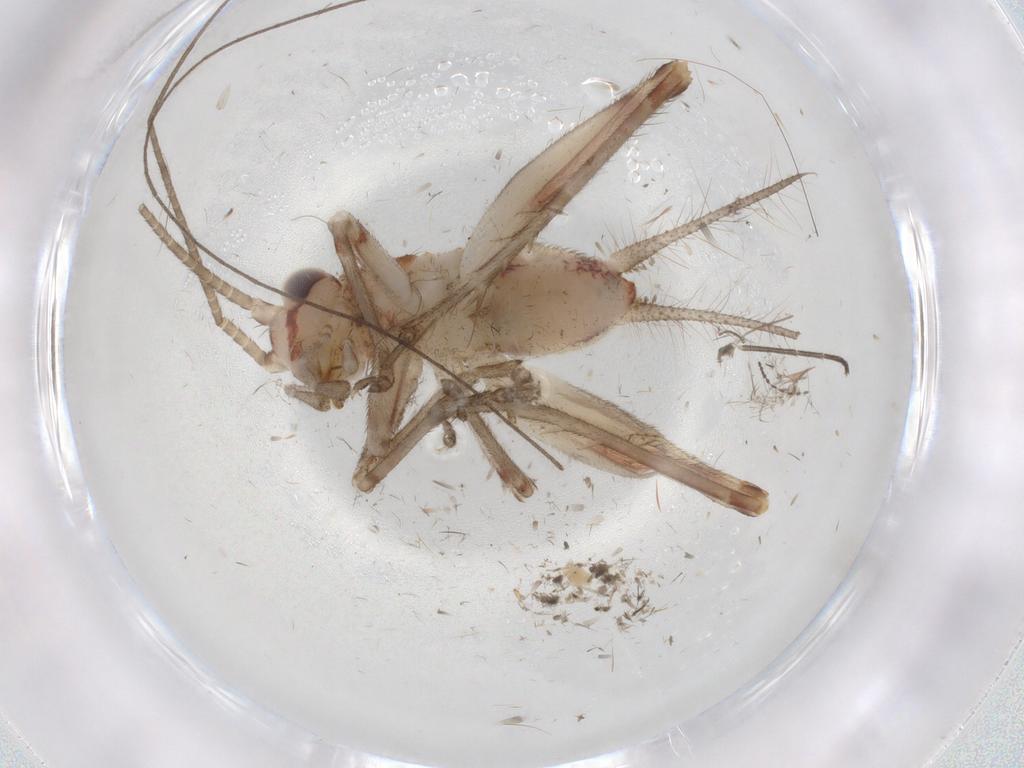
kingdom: Animalia
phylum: Arthropoda
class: Insecta
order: Orthoptera
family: Trigonidiidae
